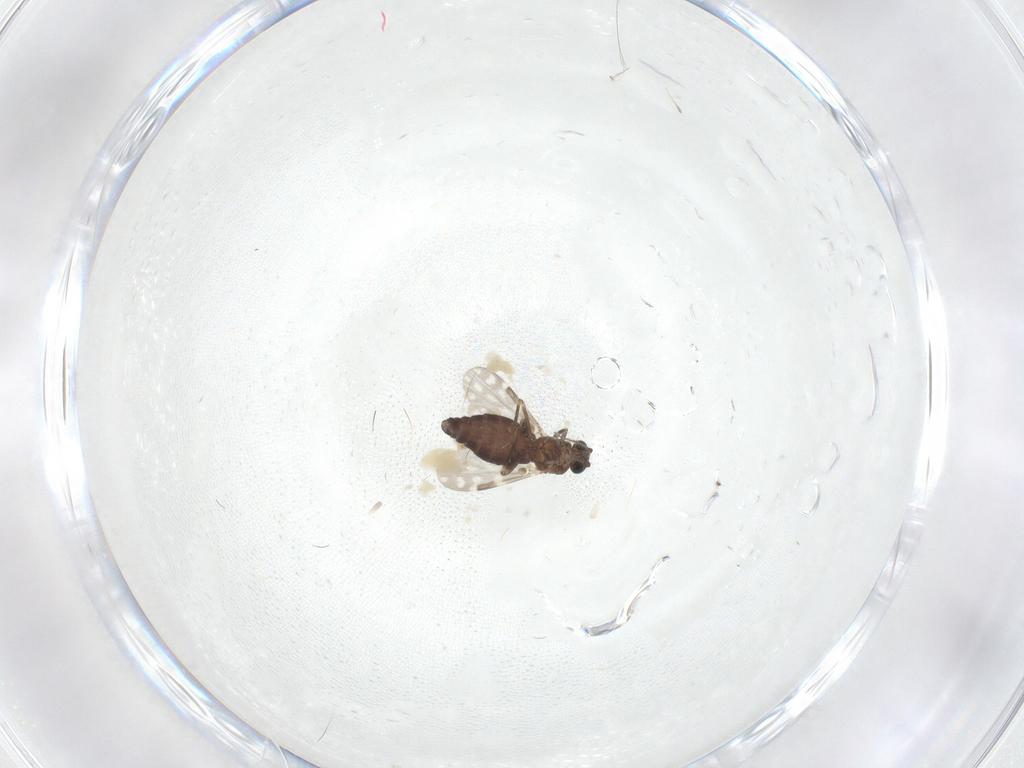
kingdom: Animalia
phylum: Arthropoda
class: Insecta
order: Diptera
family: Ceratopogonidae
